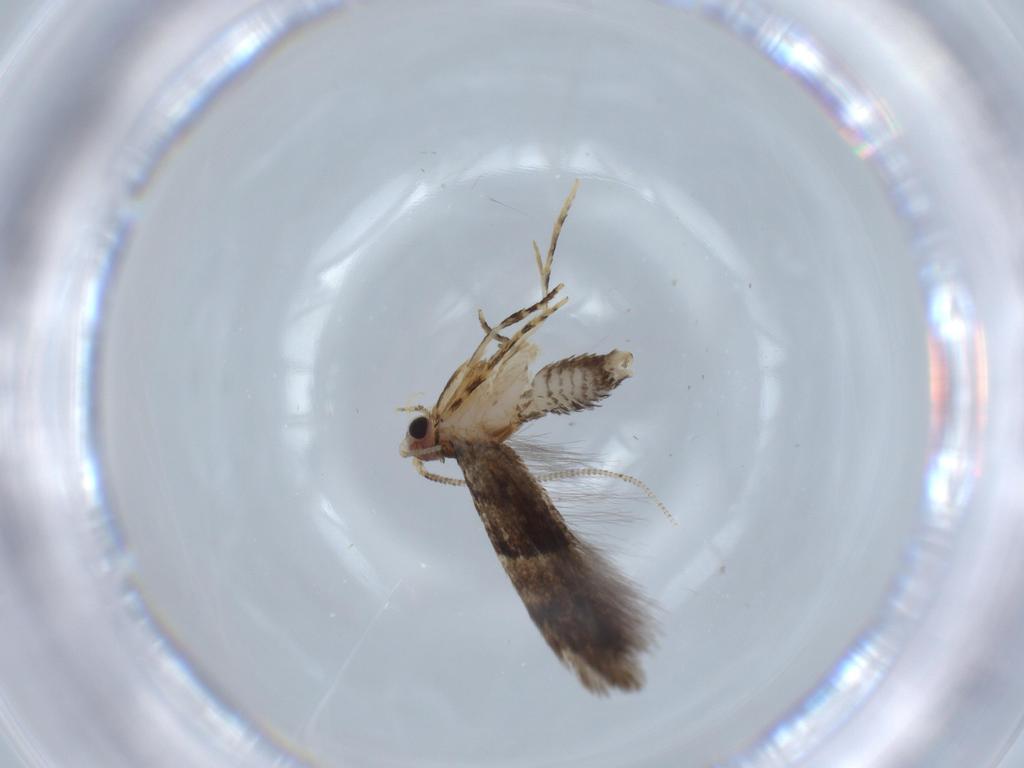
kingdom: Animalia
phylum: Arthropoda
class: Insecta
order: Lepidoptera
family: Tineidae
